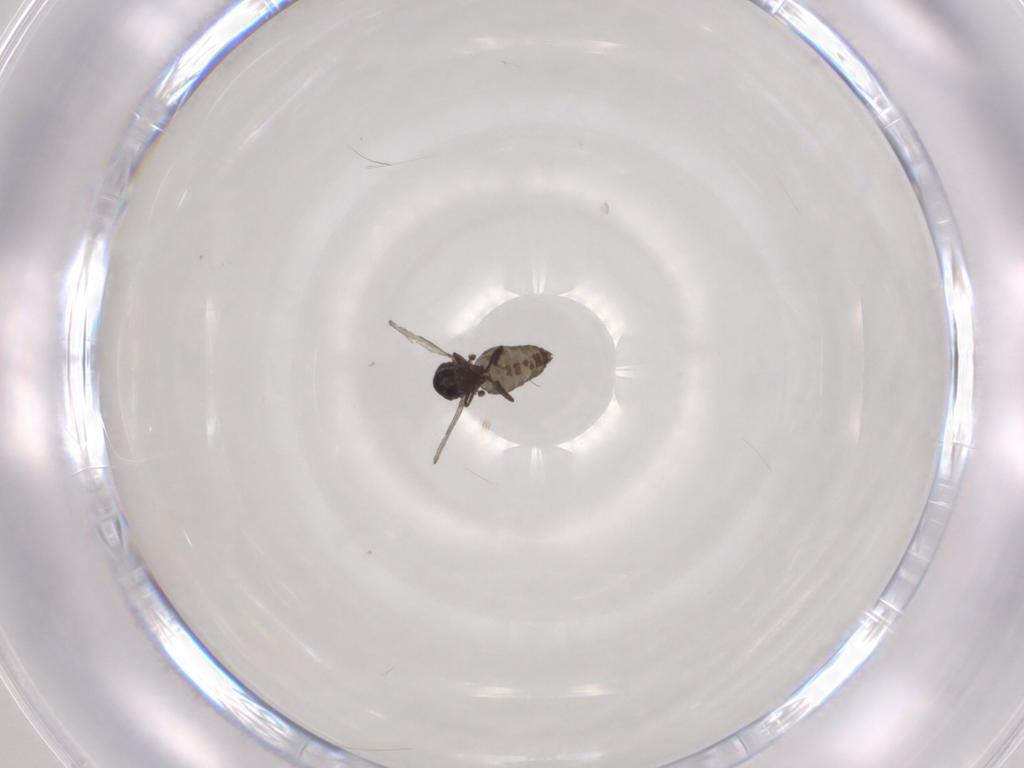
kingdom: Animalia
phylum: Arthropoda
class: Insecta
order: Diptera
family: Ceratopogonidae
